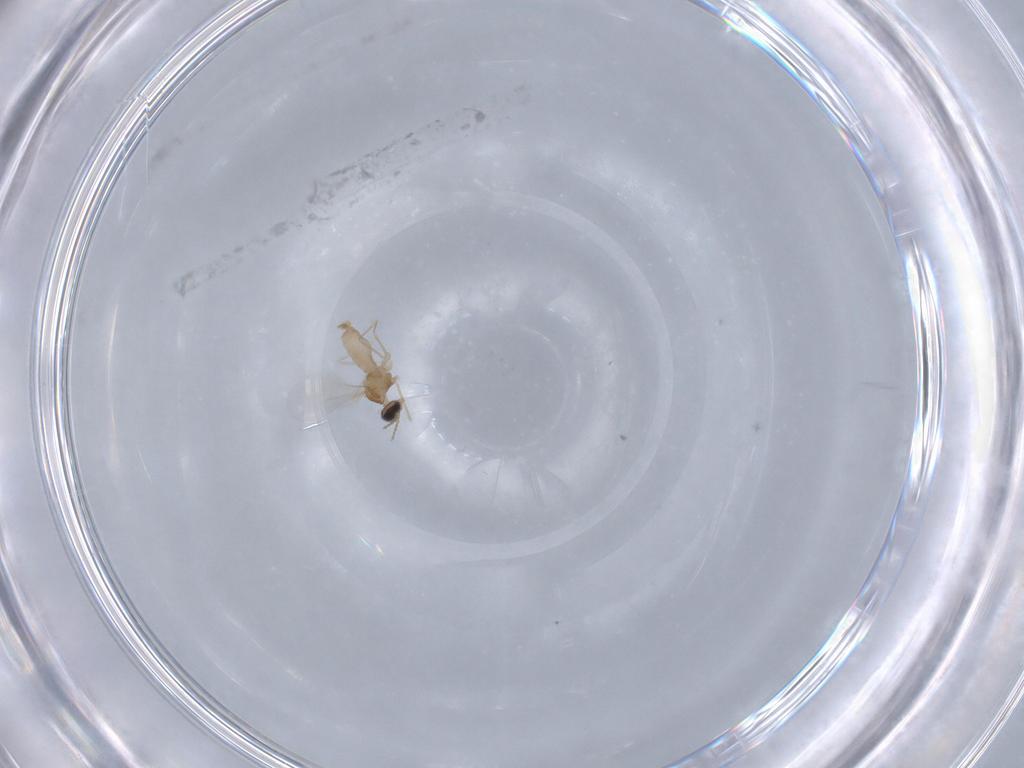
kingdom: Animalia
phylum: Arthropoda
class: Insecta
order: Diptera
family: Cecidomyiidae
